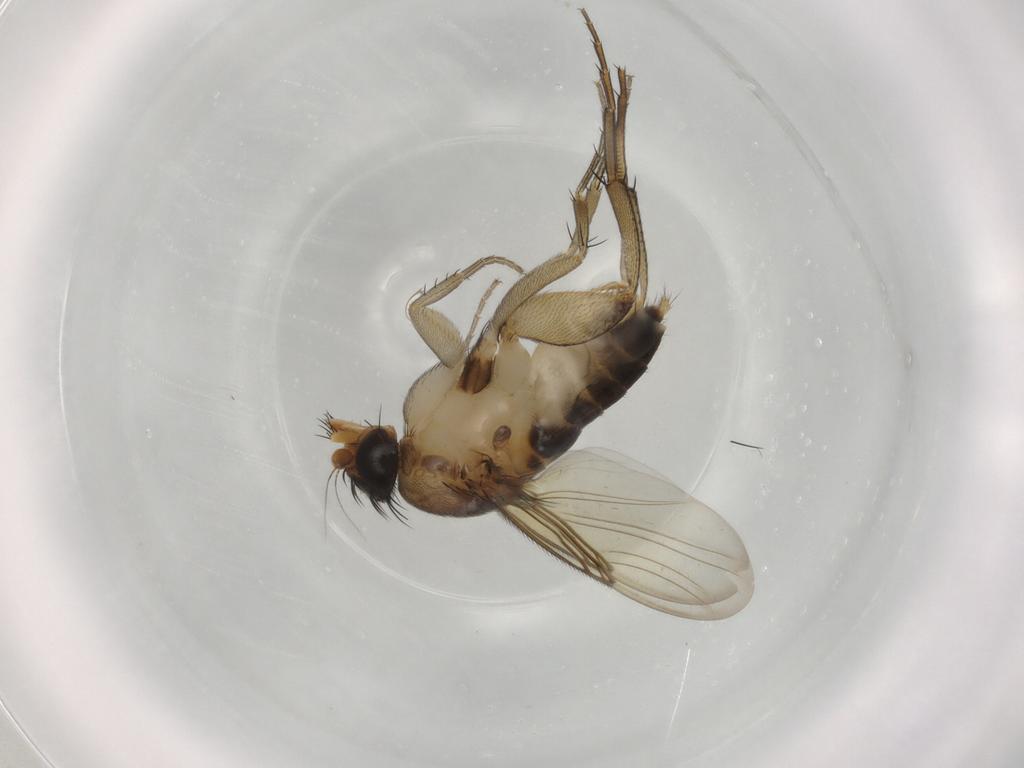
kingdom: Animalia
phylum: Arthropoda
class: Insecta
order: Diptera
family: Phoridae
